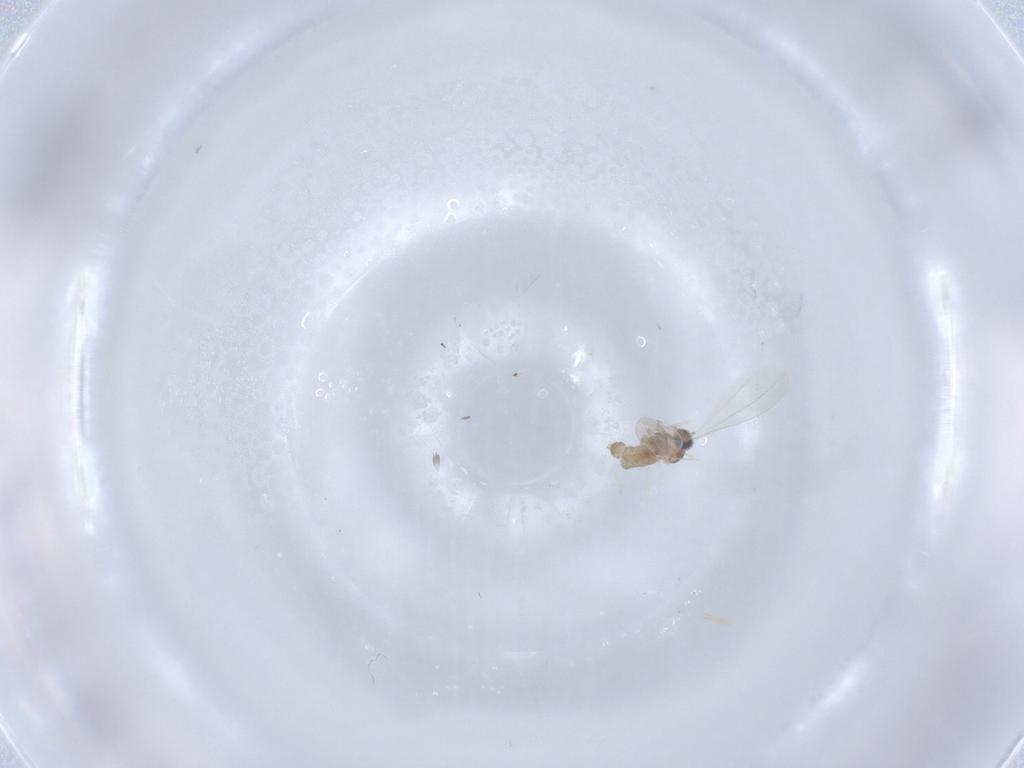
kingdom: Animalia
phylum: Arthropoda
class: Insecta
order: Diptera
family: Cecidomyiidae
